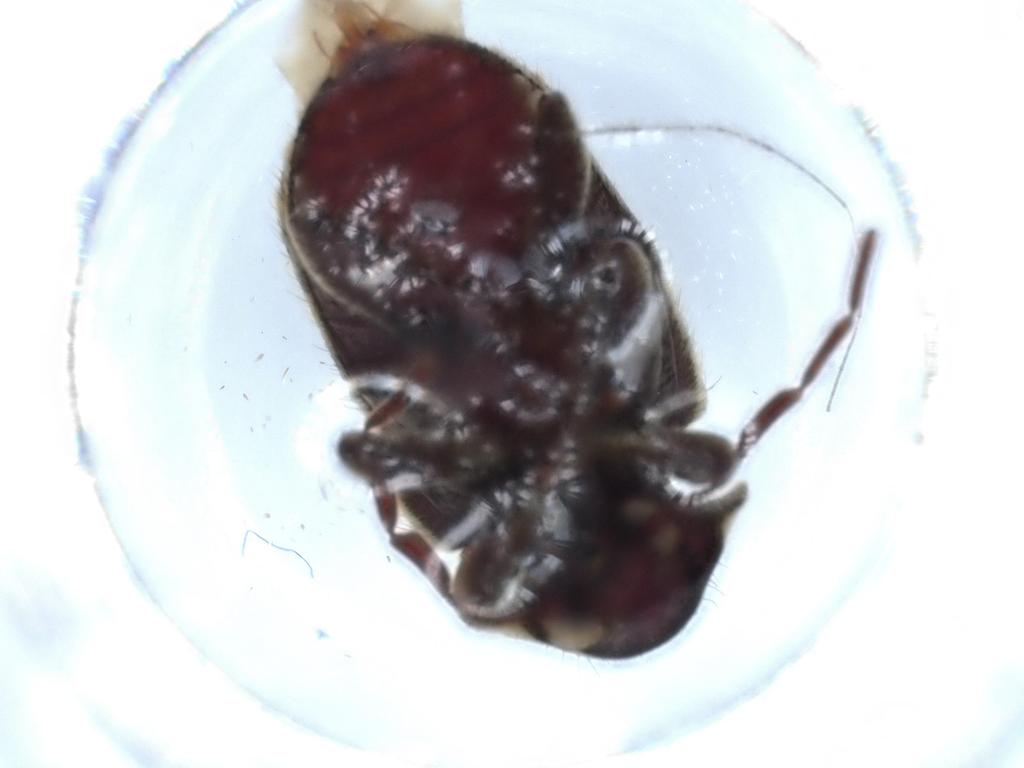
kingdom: Animalia
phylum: Arthropoda
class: Insecta
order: Coleoptera
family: Ptinidae
